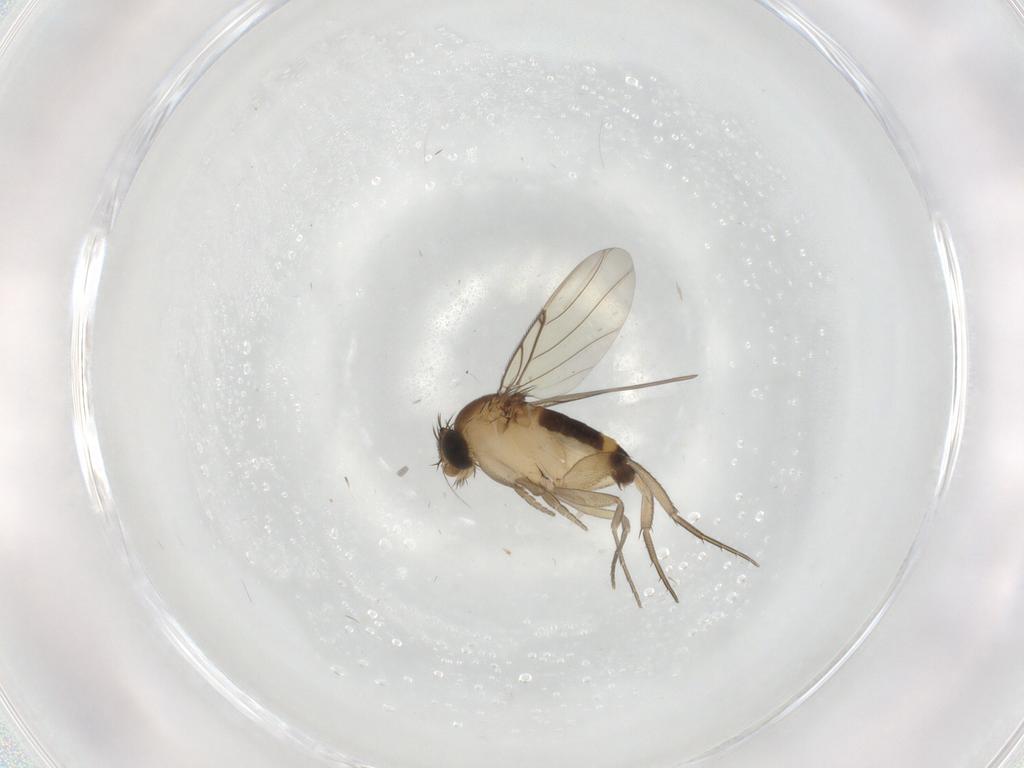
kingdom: Animalia
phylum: Arthropoda
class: Insecta
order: Diptera
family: Phoridae
